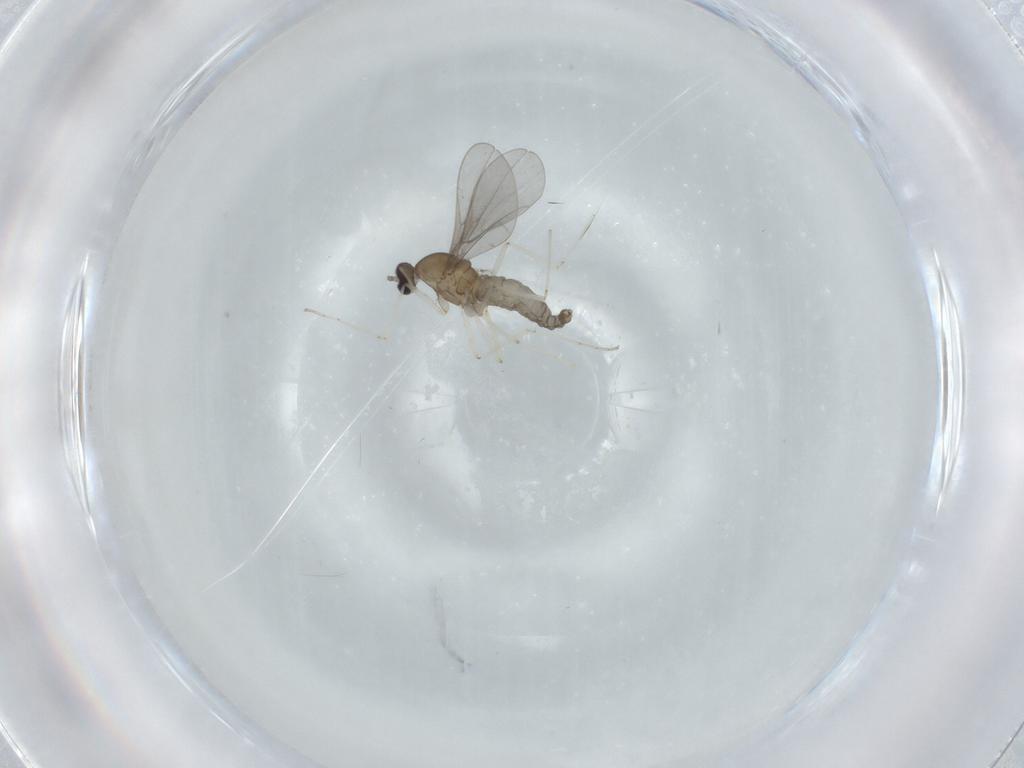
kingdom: Animalia
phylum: Arthropoda
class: Insecta
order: Diptera
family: Cecidomyiidae
